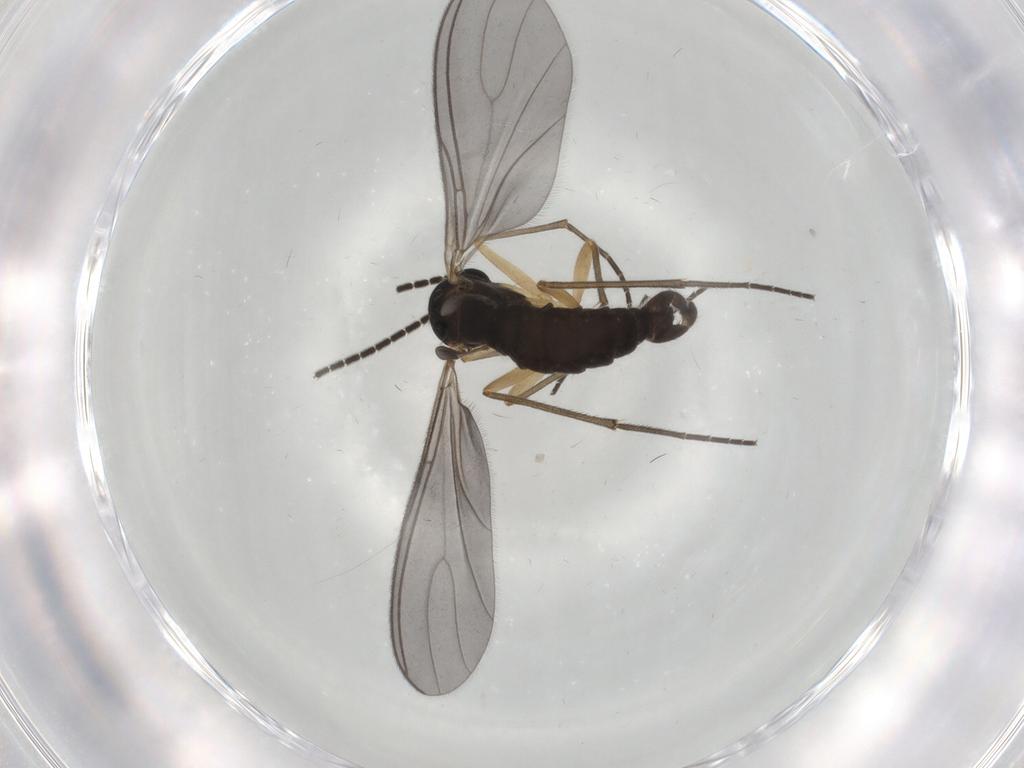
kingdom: Animalia
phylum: Arthropoda
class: Insecta
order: Diptera
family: Sciaridae
